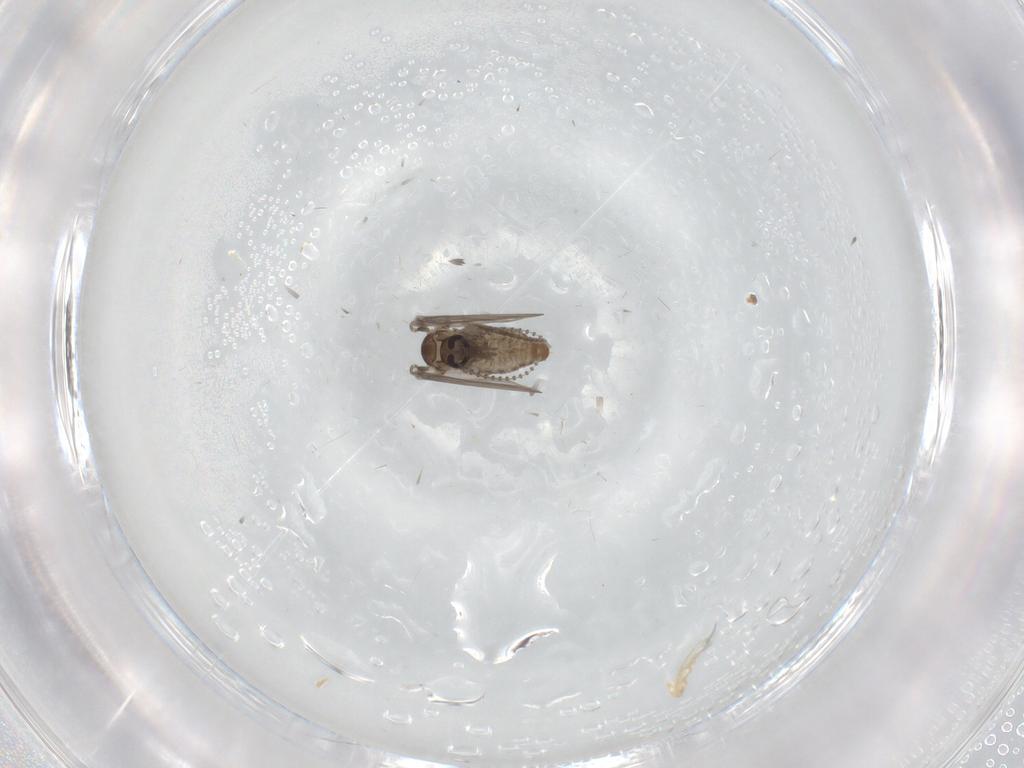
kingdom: Animalia
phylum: Arthropoda
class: Insecta
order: Diptera
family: Psychodidae
